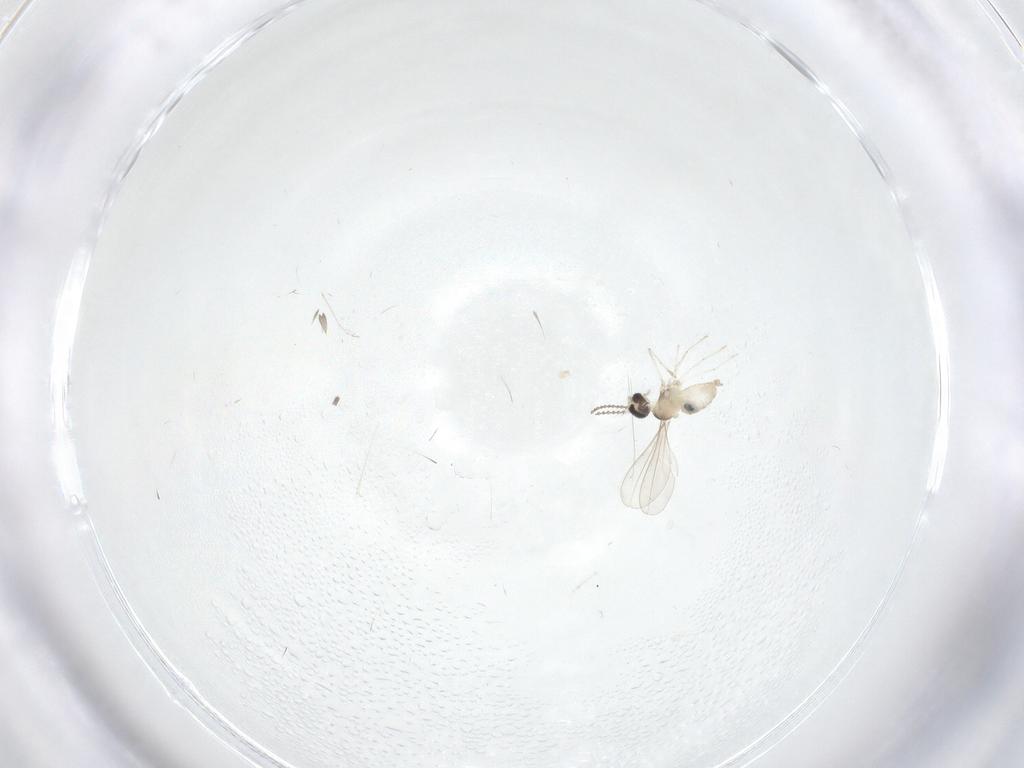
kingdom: Animalia
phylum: Arthropoda
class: Insecta
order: Diptera
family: Cecidomyiidae
